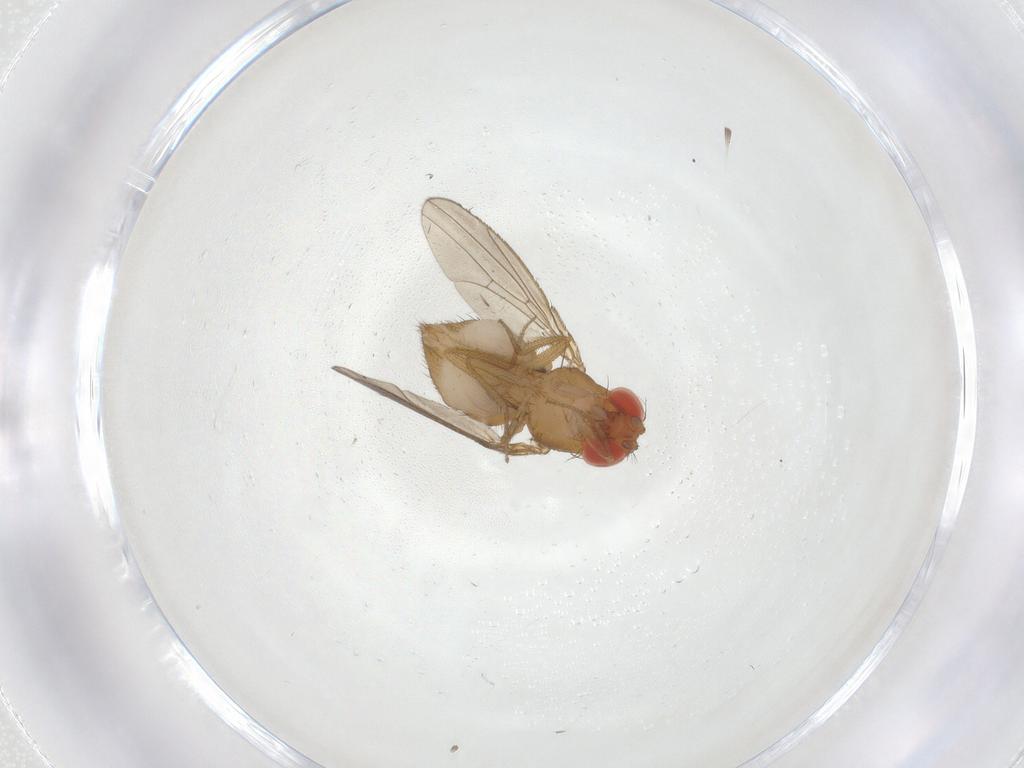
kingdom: Animalia
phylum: Arthropoda
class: Insecta
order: Diptera
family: Drosophilidae
